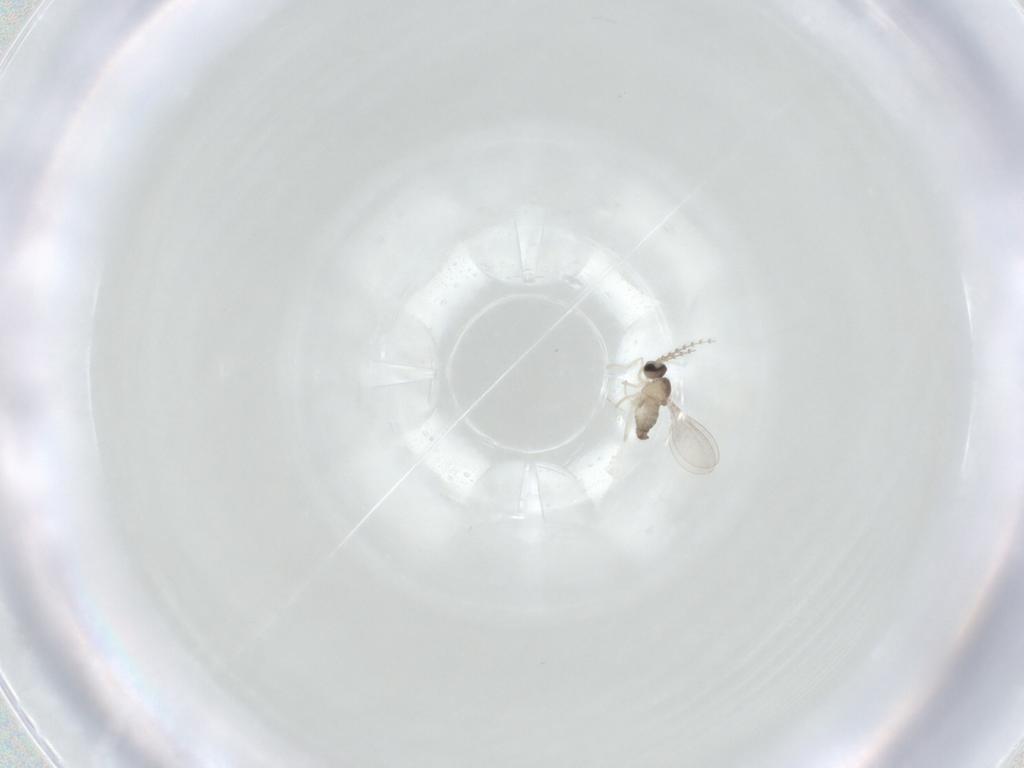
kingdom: Animalia
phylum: Arthropoda
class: Insecta
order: Diptera
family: Cecidomyiidae
